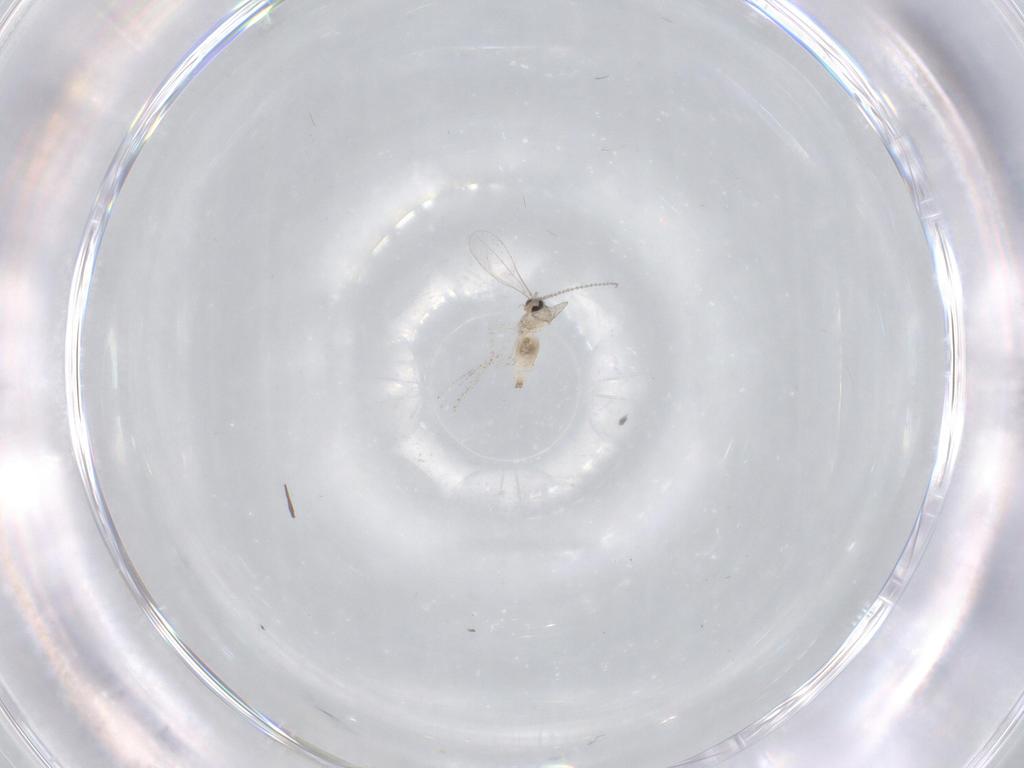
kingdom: Animalia
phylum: Arthropoda
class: Insecta
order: Diptera
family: Cecidomyiidae
